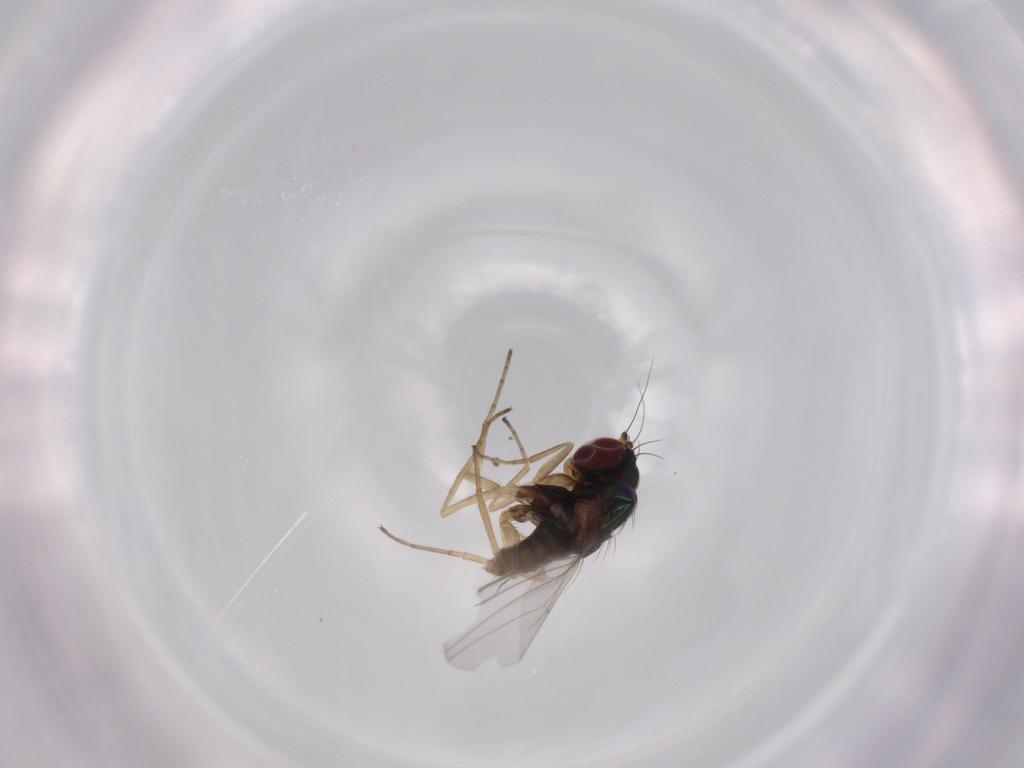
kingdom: Animalia
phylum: Arthropoda
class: Insecta
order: Diptera
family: Dolichopodidae
